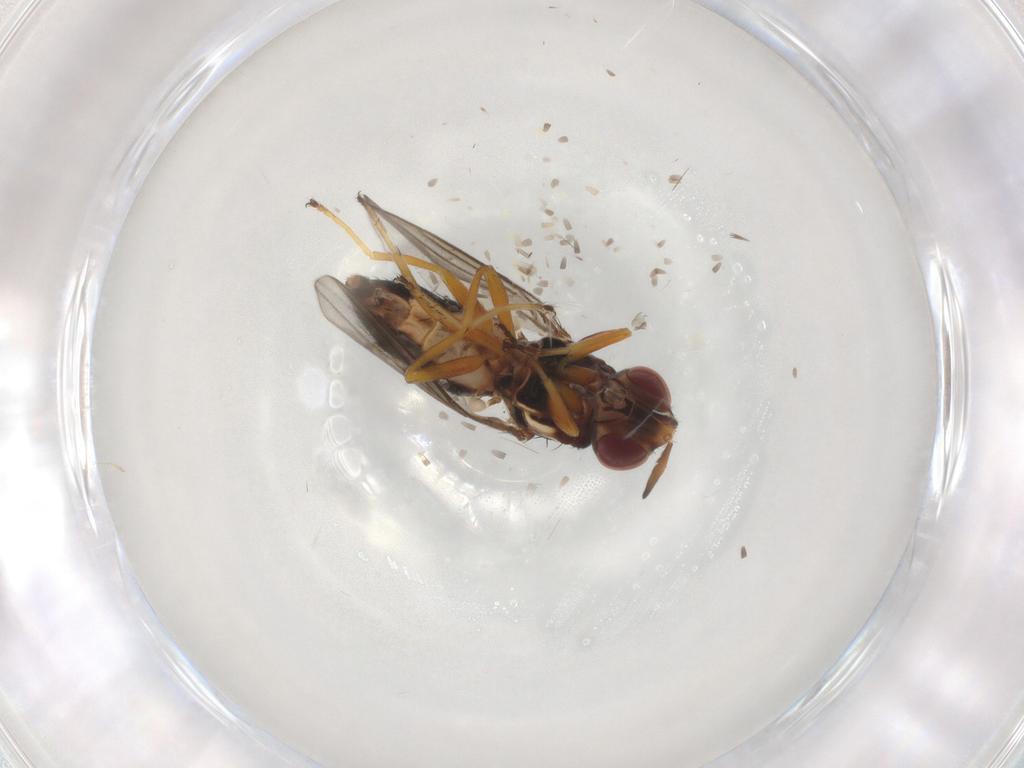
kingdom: Animalia
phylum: Arthropoda
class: Insecta
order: Diptera
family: Chloropidae
